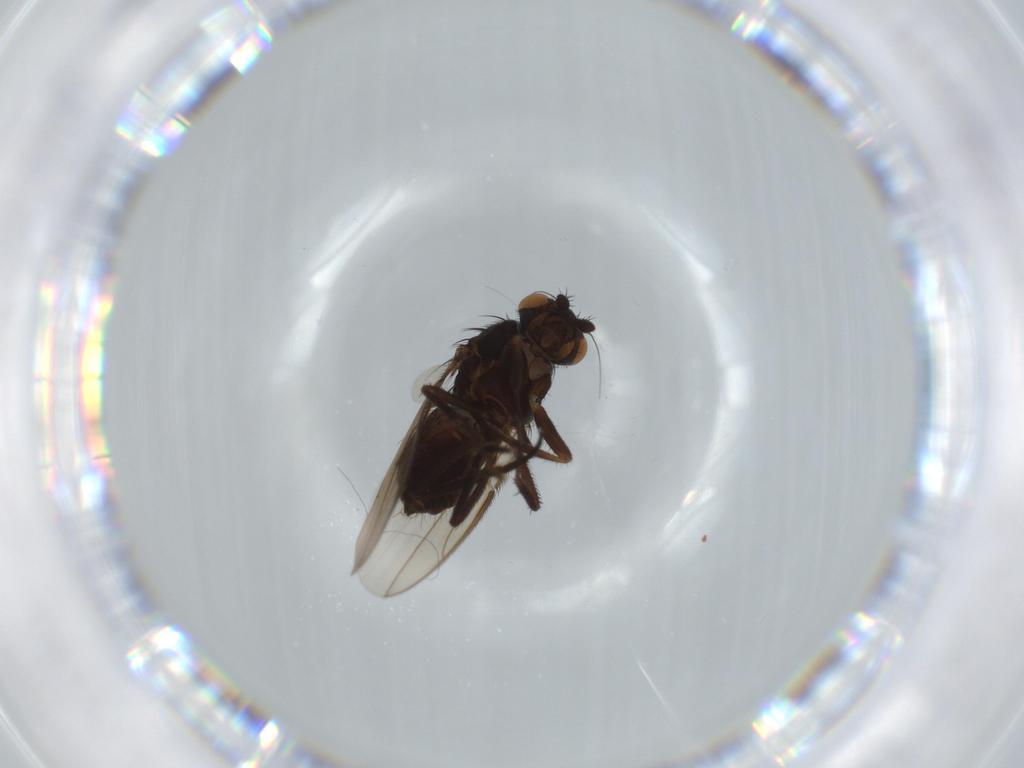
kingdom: Animalia
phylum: Arthropoda
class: Insecta
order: Diptera
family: Sphaeroceridae
